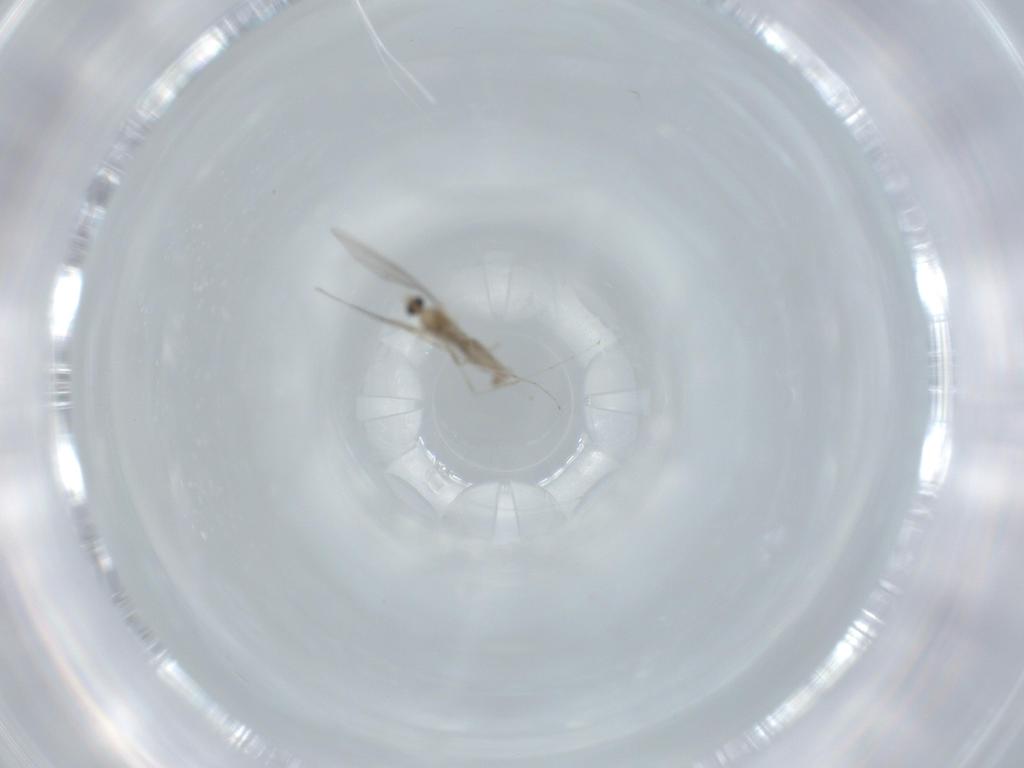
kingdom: Animalia
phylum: Arthropoda
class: Insecta
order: Diptera
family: Cecidomyiidae
